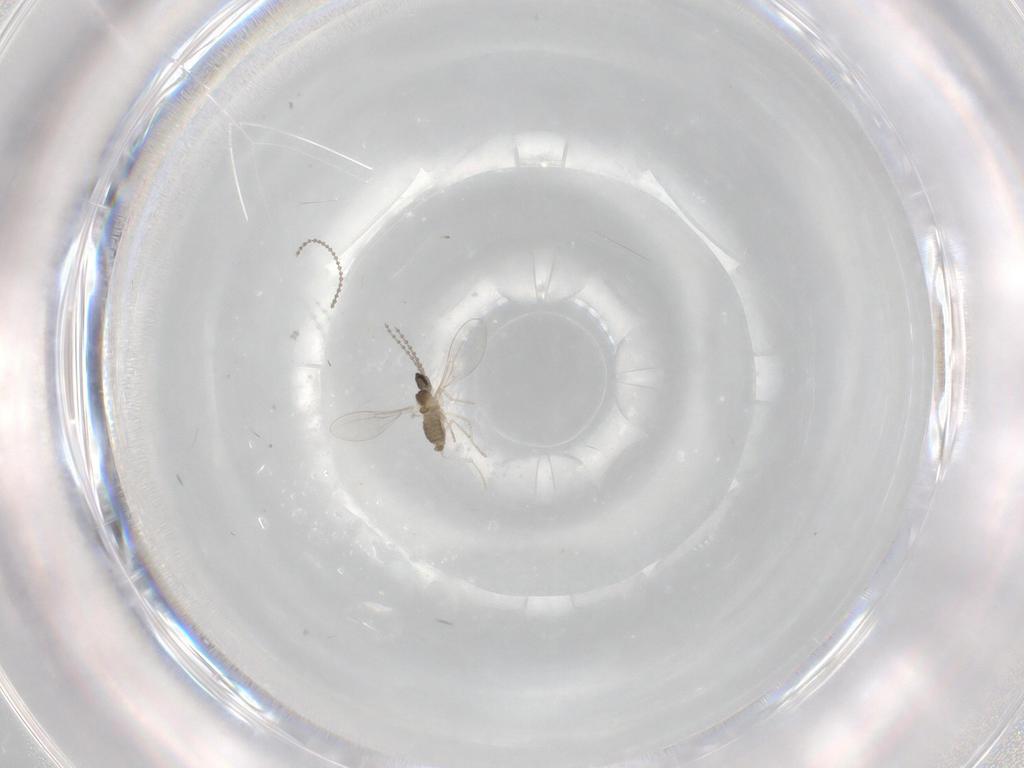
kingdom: Animalia
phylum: Arthropoda
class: Insecta
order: Diptera
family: Cecidomyiidae
